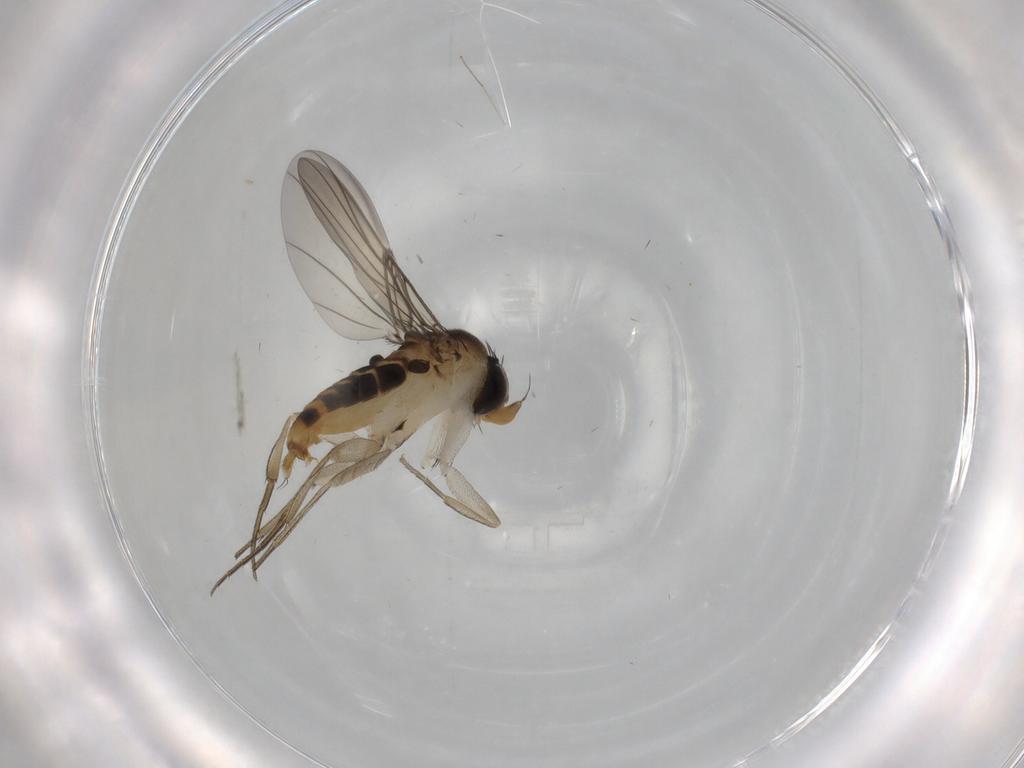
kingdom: Animalia
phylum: Arthropoda
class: Insecta
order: Diptera
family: Phoridae
